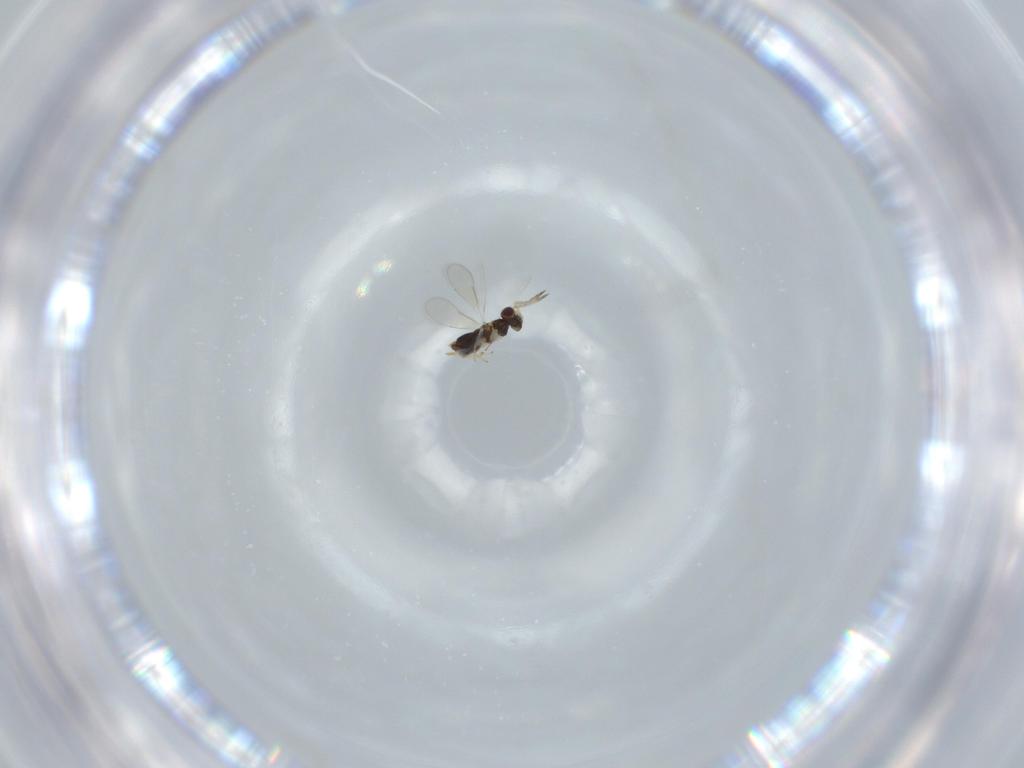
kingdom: Animalia
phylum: Arthropoda
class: Insecta
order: Hymenoptera
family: Aphelinidae
